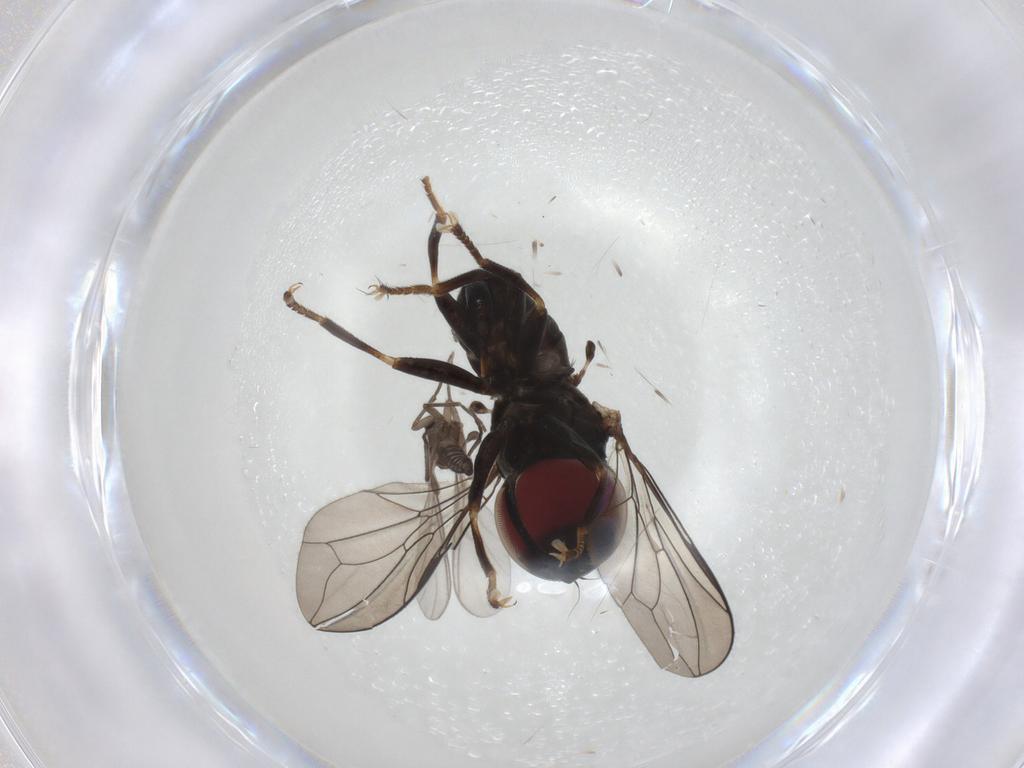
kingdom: Animalia
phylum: Arthropoda
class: Insecta
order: Diptera
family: Pipunculidae
